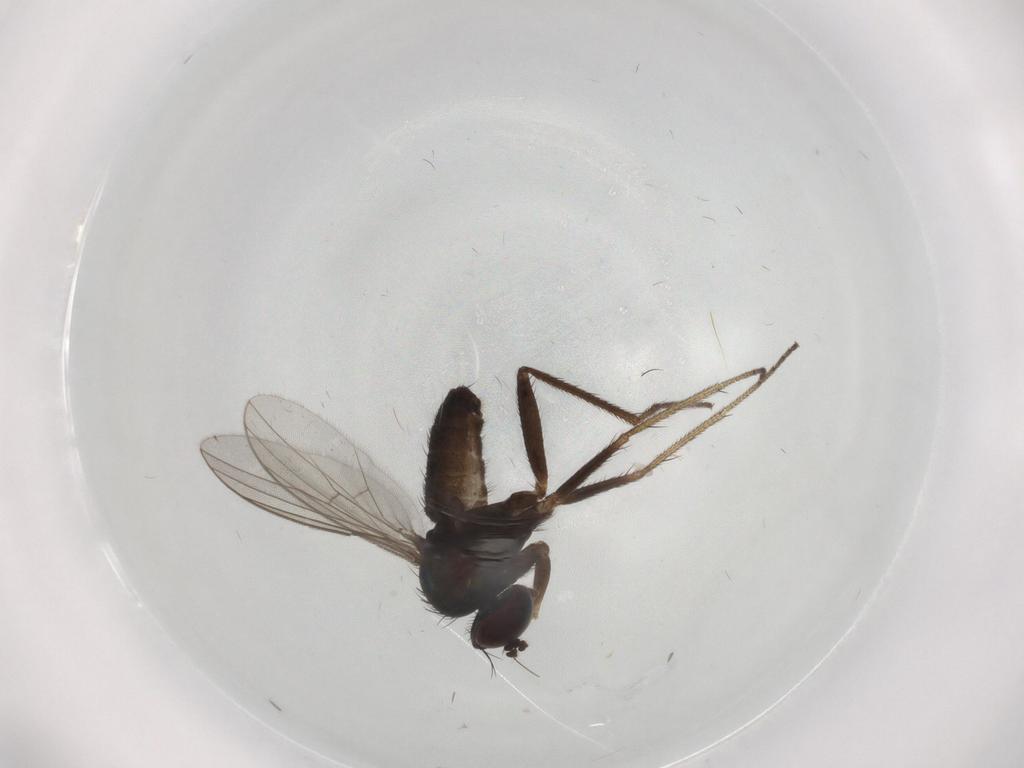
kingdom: Animalia
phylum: Arthropoda
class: Insecta
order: Diptera
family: Dolichopodidae
